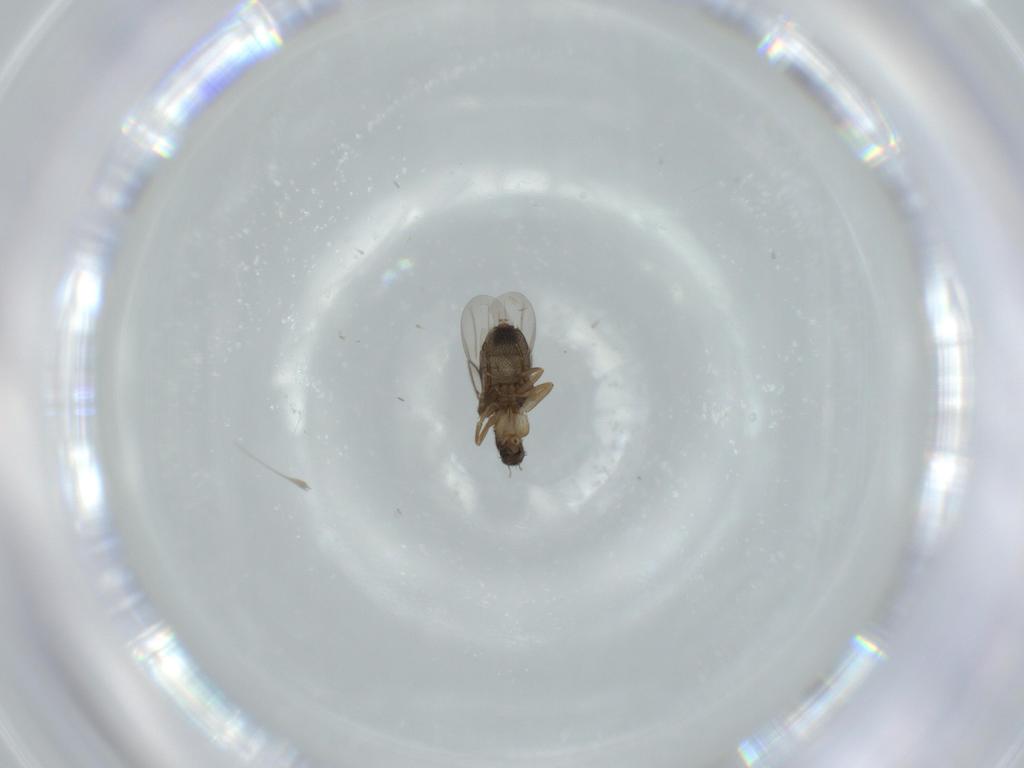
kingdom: Animalia
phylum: Arthropoda
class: Insecta
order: Diptera
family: Phoridae
